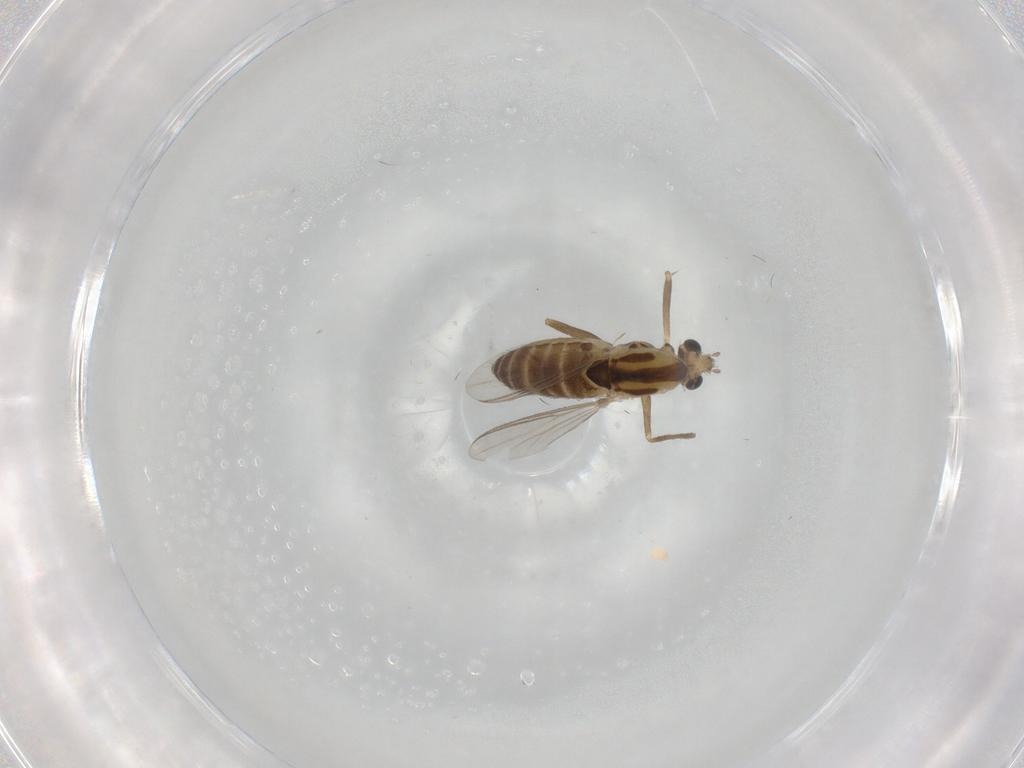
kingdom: Animalia
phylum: Arthropoda
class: Insecta
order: Diptera
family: Chironomidae
